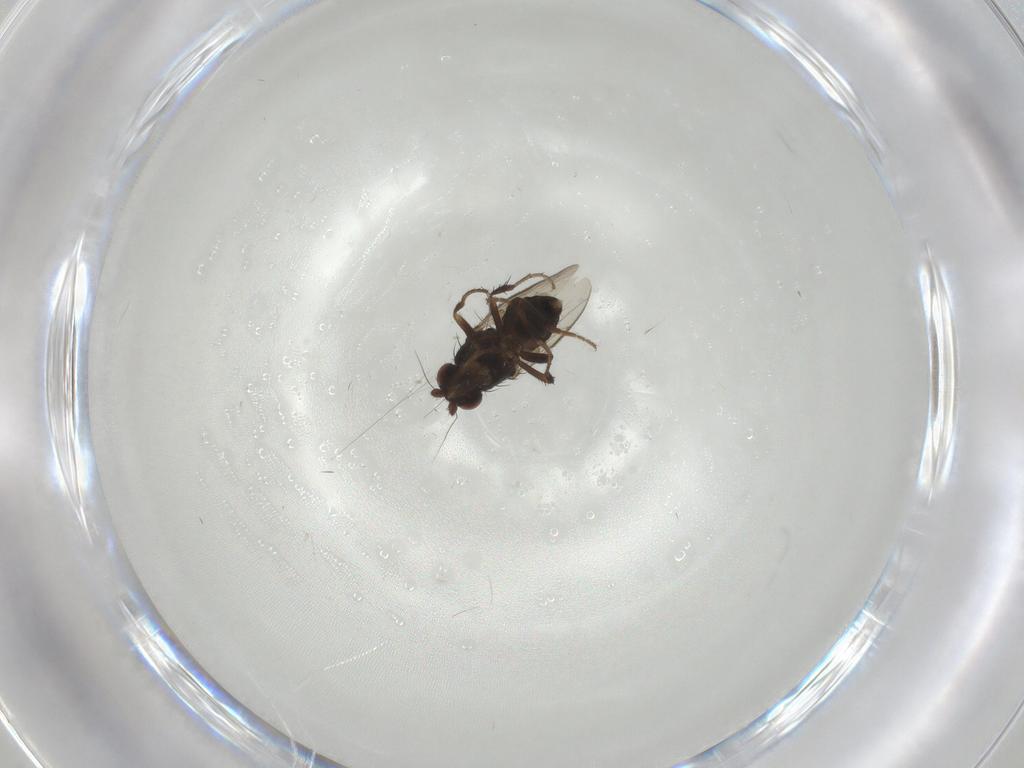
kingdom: Animalia
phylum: Arthropoda
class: Insecta
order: Diptera
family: Sphaeroceridae
